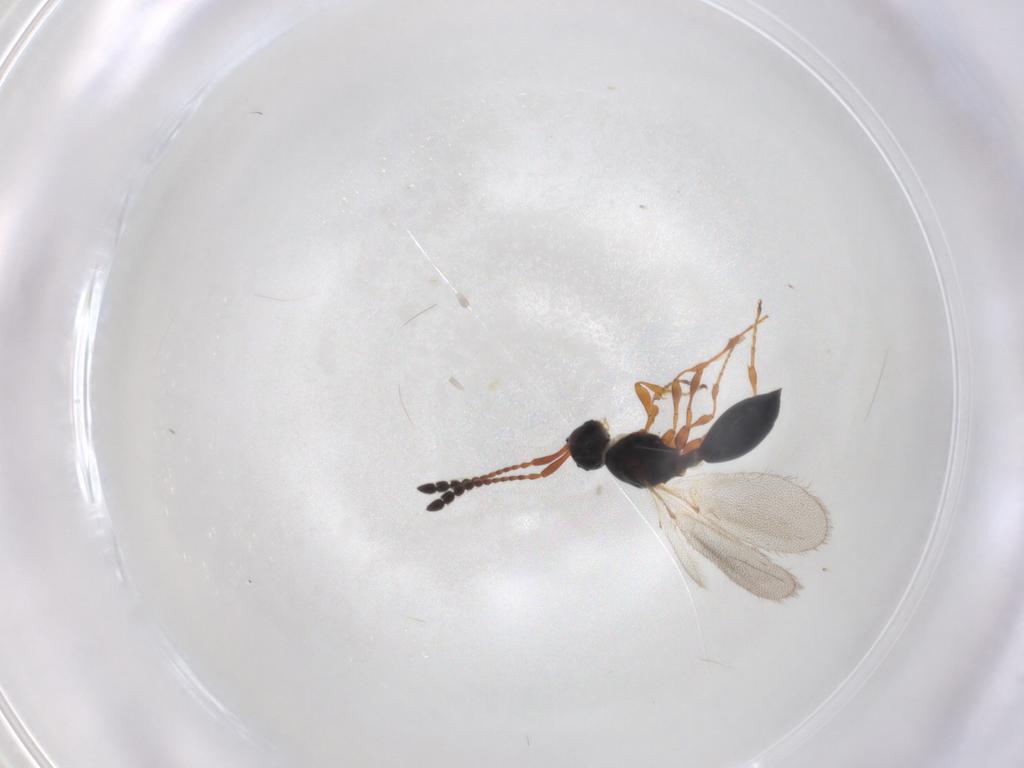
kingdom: Animalia
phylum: Arthropoda
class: Insecta
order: Hymenoptera
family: Diapriidae
